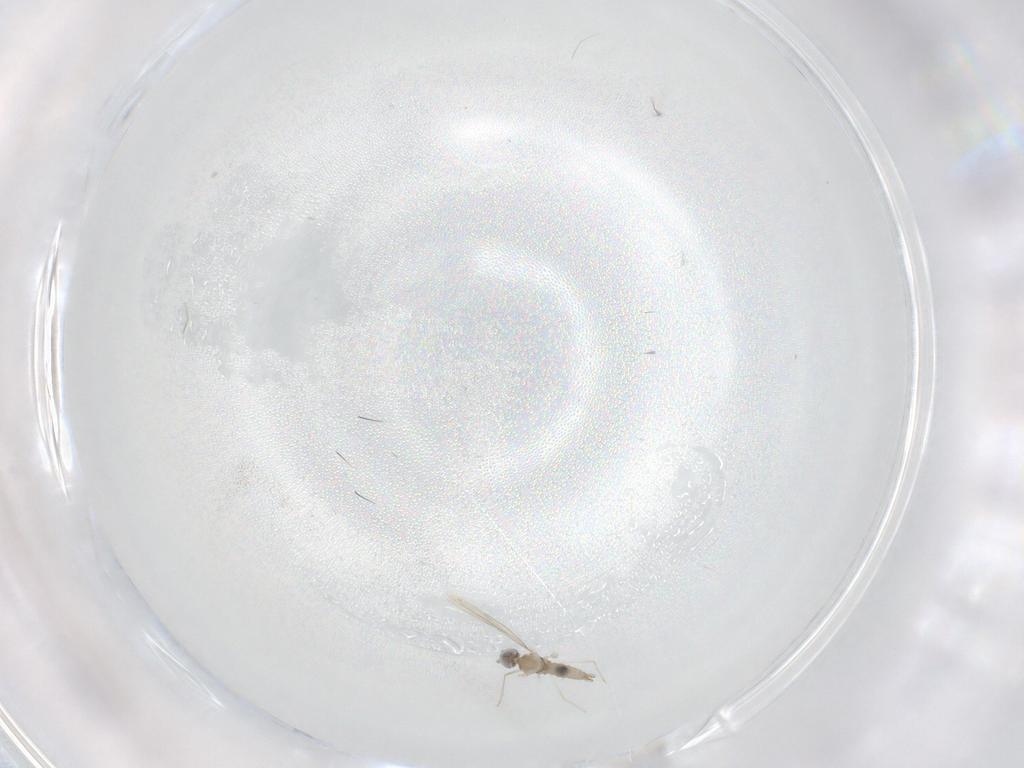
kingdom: Animalia
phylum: Arthropoda
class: Insecta
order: Diptera
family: Cecidomyiidae
